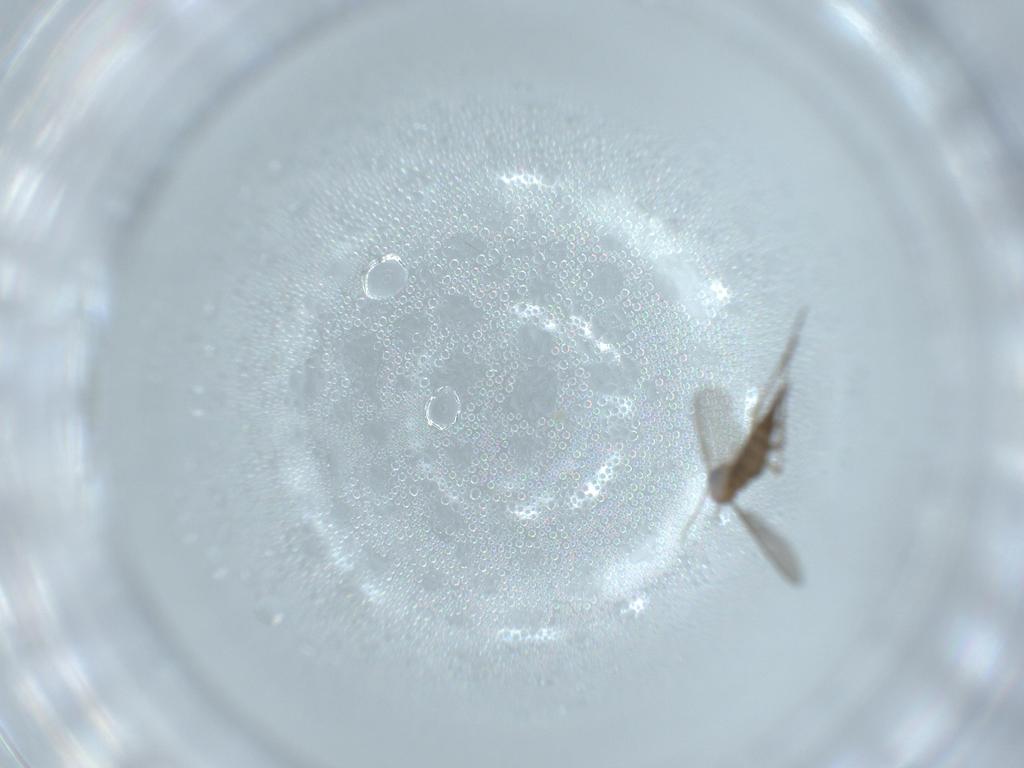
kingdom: Animalia
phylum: Arthropoda
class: Insecta
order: Diptera
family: Sciaridae
